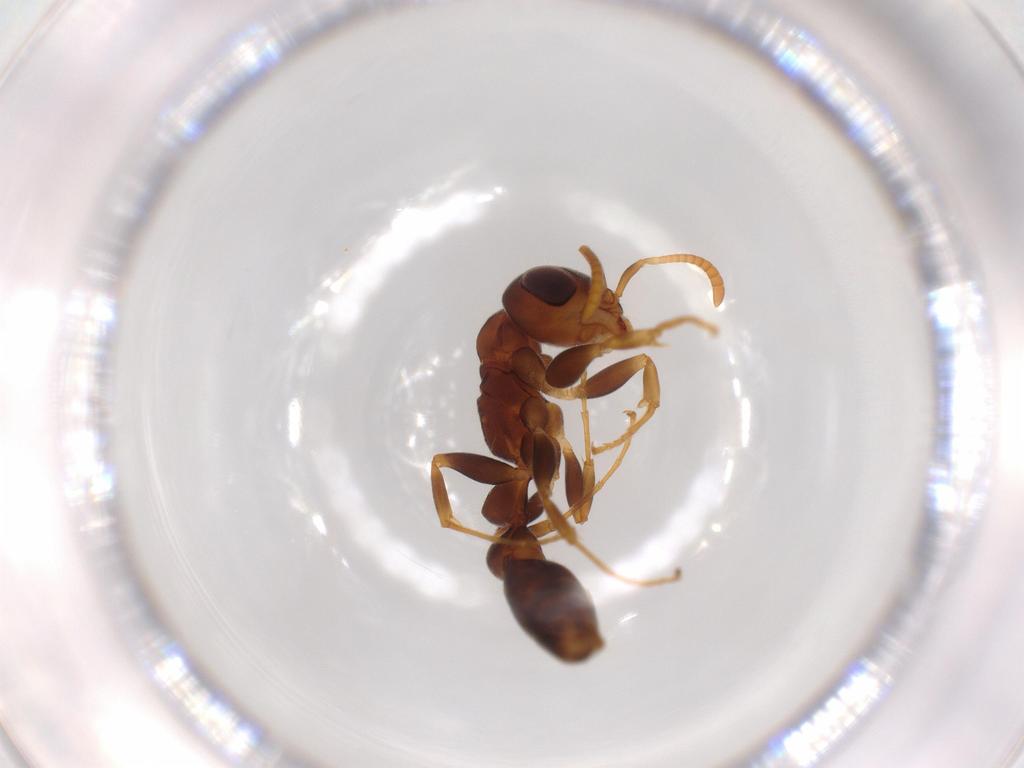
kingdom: Animalia
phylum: Arthropoda
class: Insecta
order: Hymenoptera
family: Formicidae
